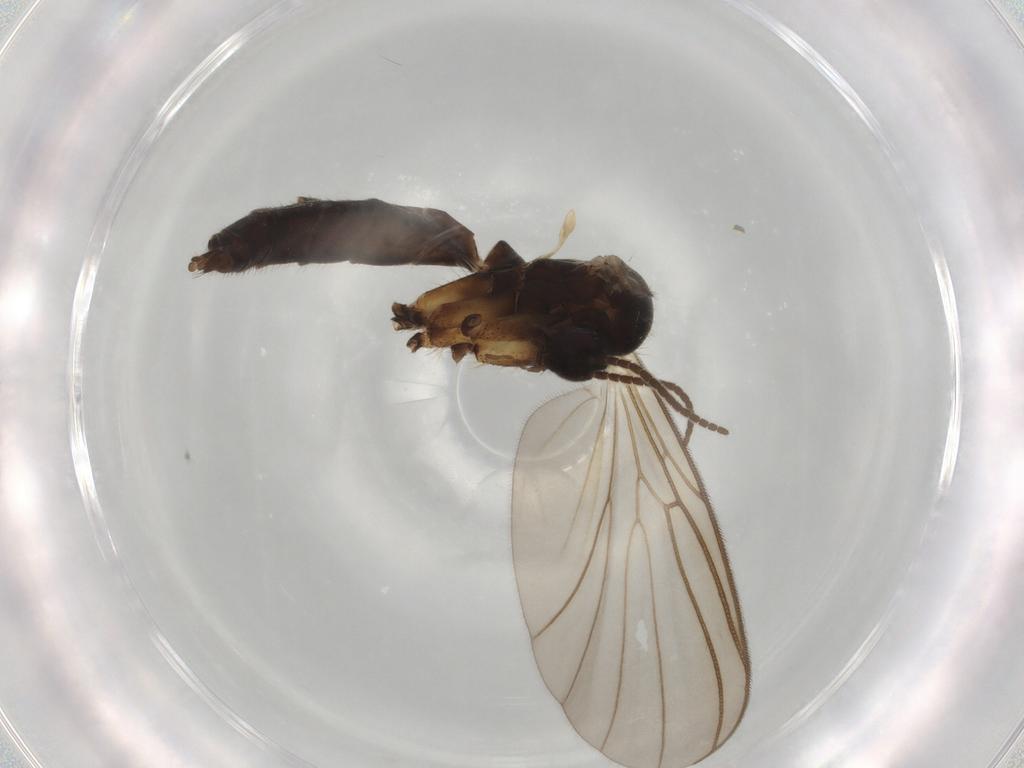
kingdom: Animalia
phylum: Arthropoda
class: Insecta
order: Diptera
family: Mycetophilidae
